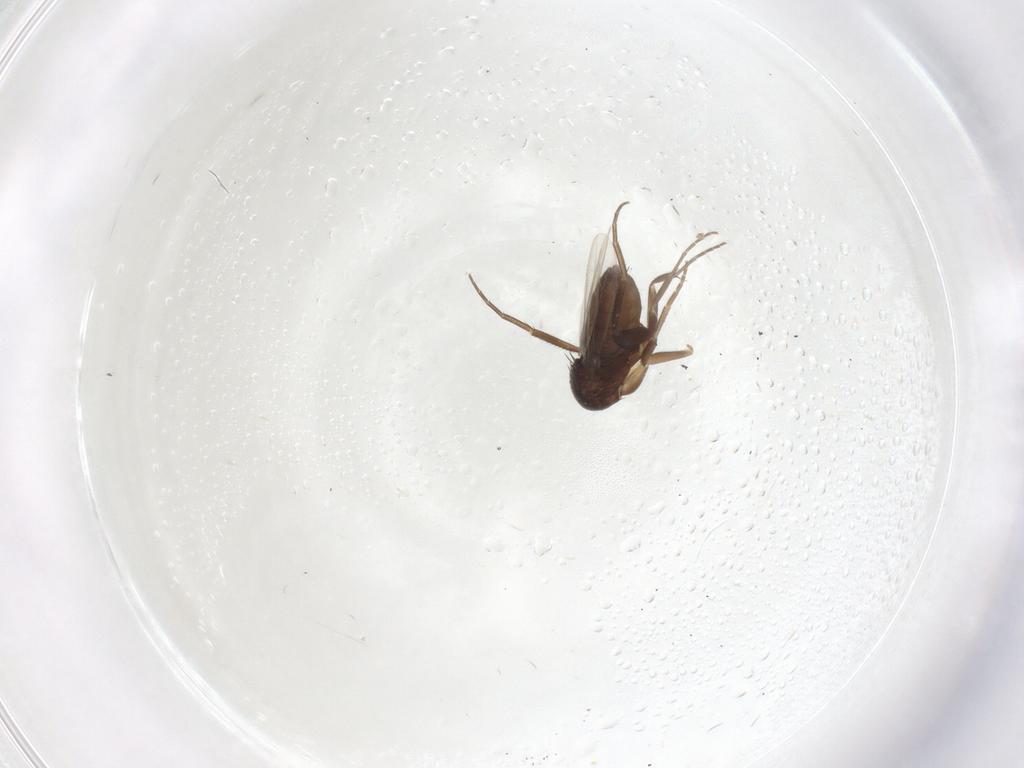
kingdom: Animalia
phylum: Arthropoda
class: Insecta
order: Diptera
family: Phoridae
